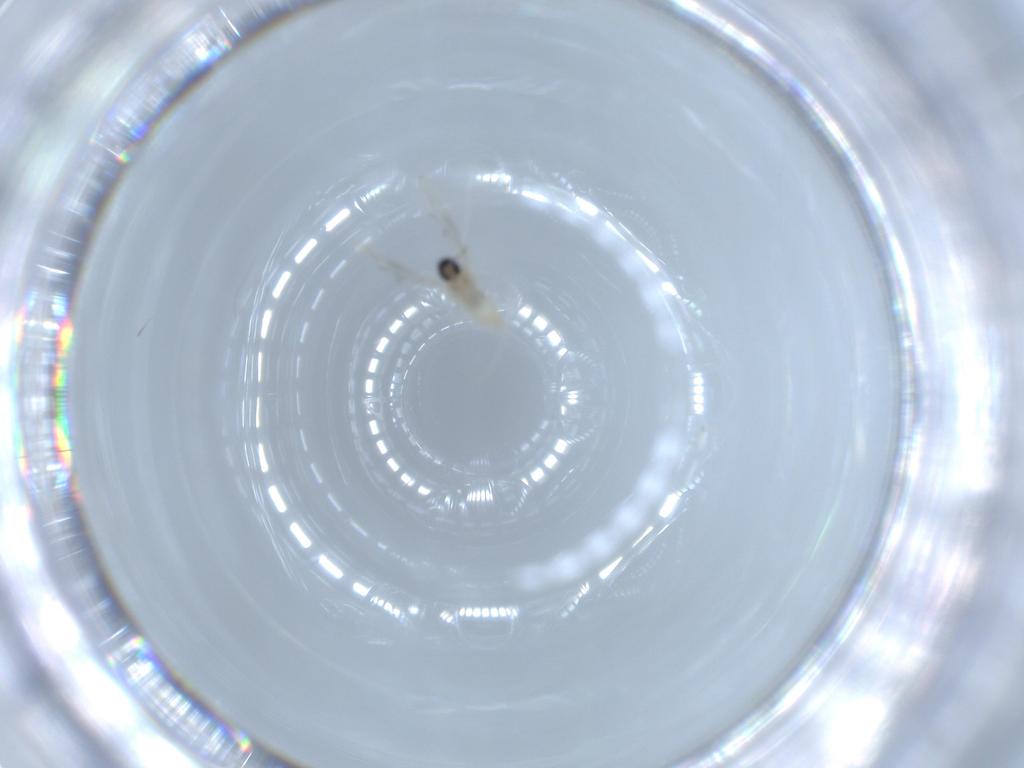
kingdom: Animalia
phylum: Arthropoda
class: Insecta
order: Diptera
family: Cecidomyiidae
